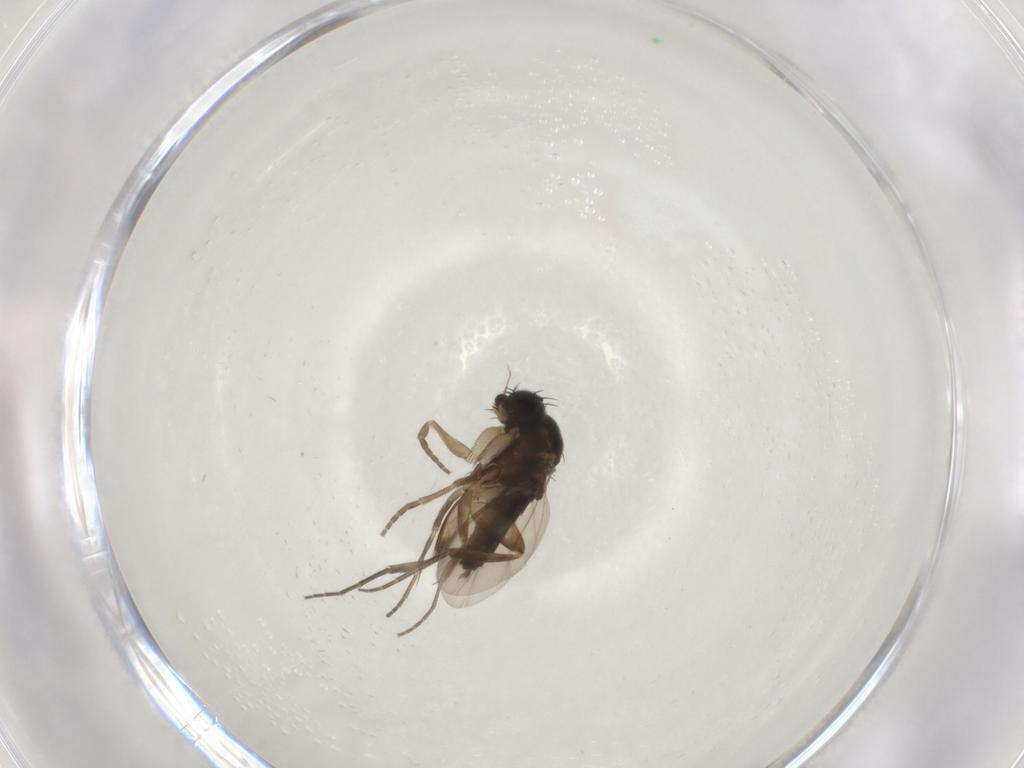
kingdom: Animalia
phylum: Arthropoda
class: Insecta
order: Diptera
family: Phoridae
